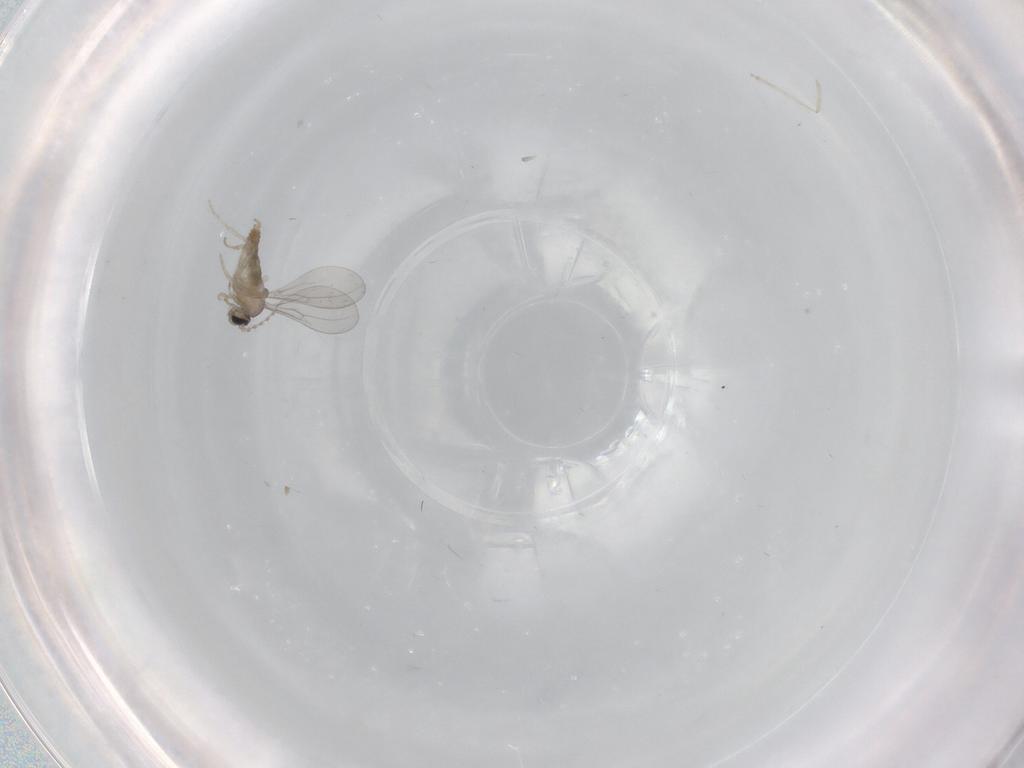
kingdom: Animalia
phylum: Arthropoda
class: Insecta
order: Diptera
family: Cecidomyiidae
